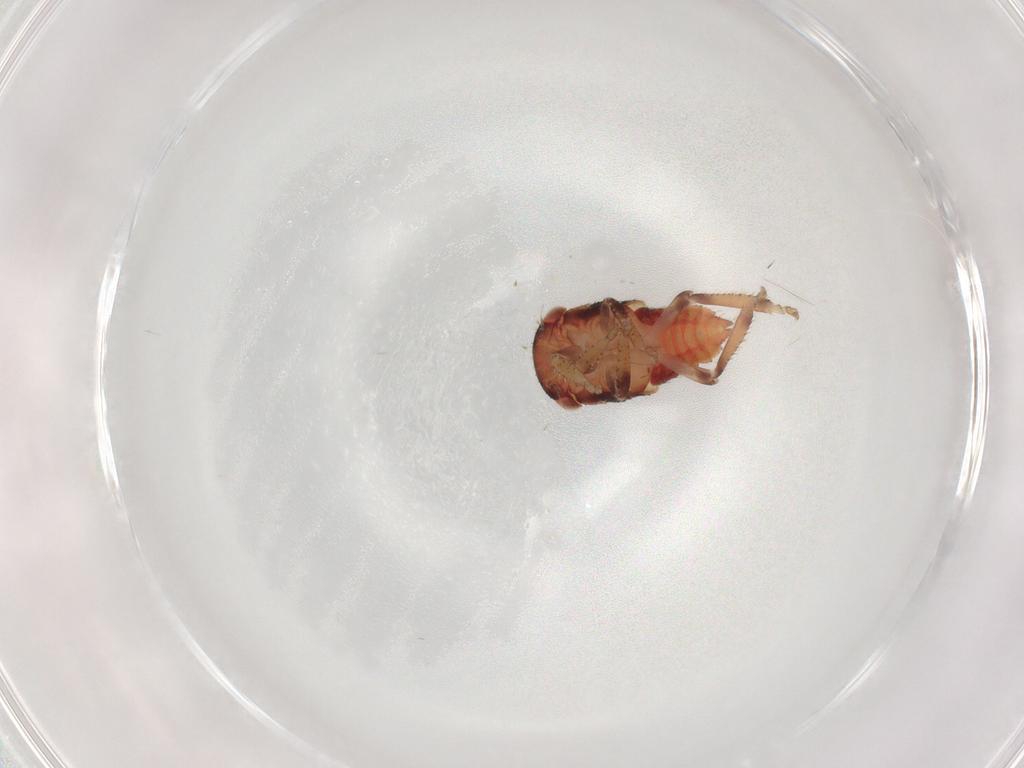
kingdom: Animalia
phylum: Arthropoda
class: Insecta
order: Hemiptera
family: Cicadellidae
